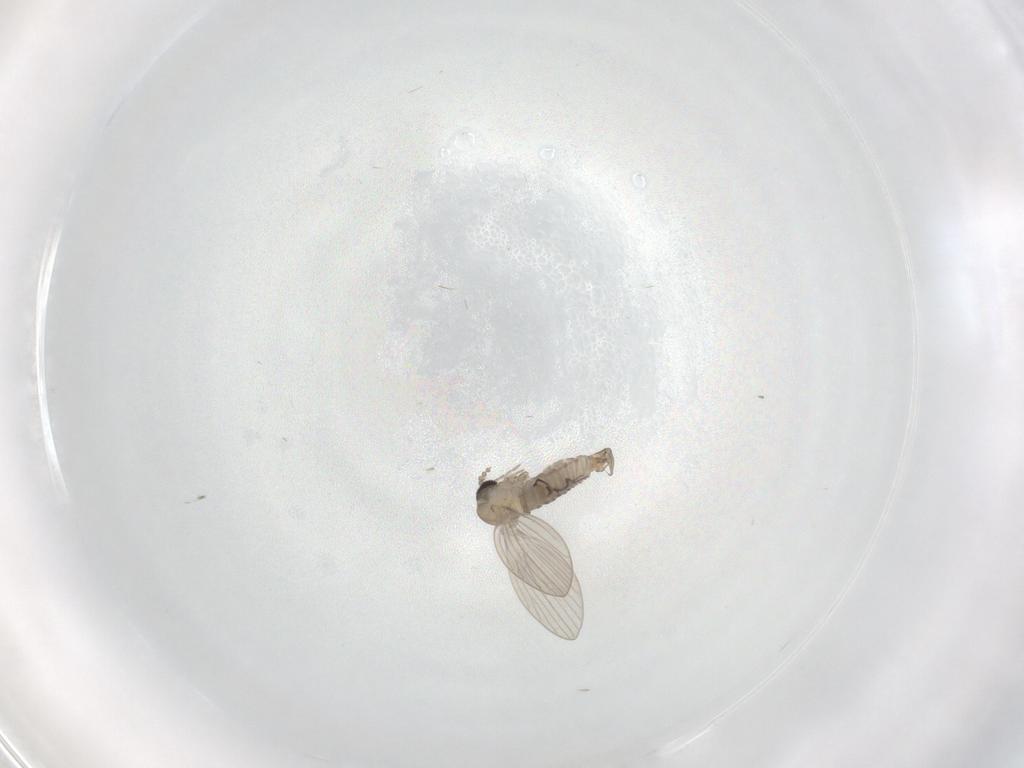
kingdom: Animalia
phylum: Arthropoda
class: Insecta
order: Diptera
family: Psychodidae
